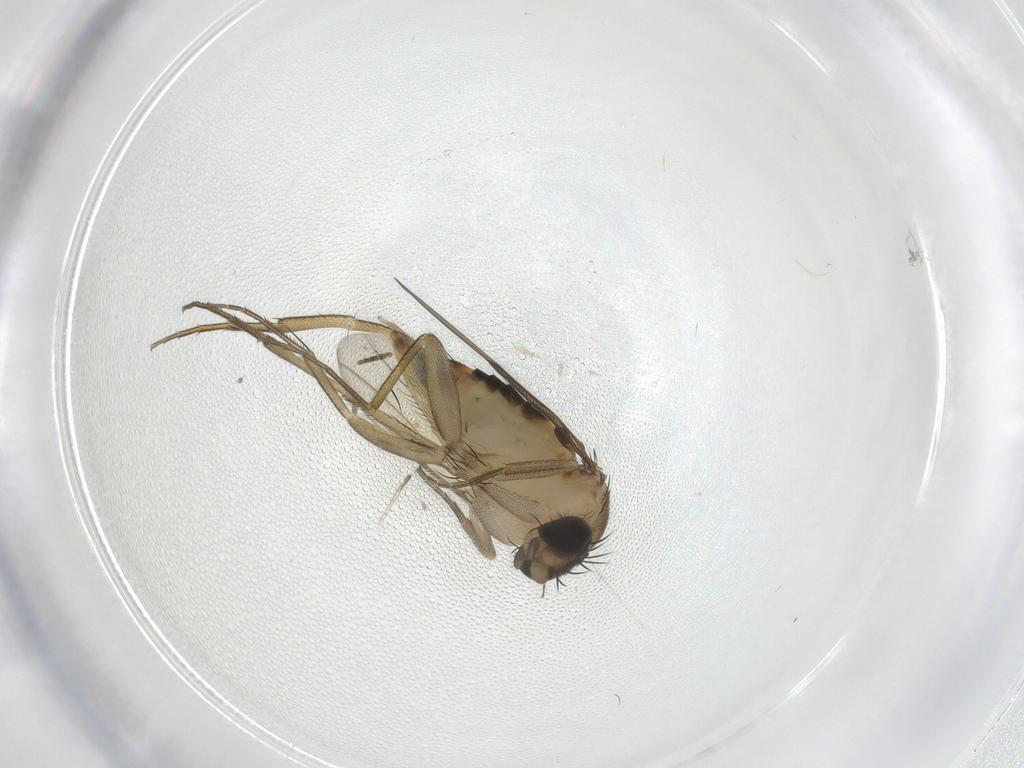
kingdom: Animalia
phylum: Arthropoda
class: Insecta
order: Diptera
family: Phoridae
